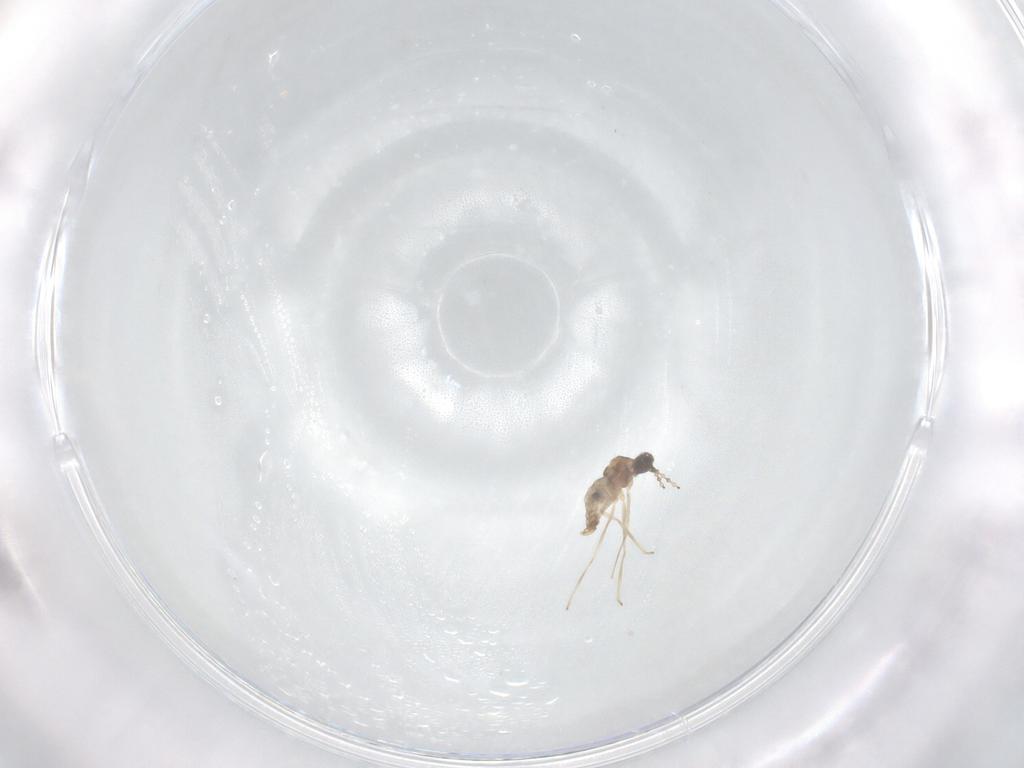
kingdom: Animalia
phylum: Arthropoda
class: Insecta
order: Diptera
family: Cecidomyiidae
